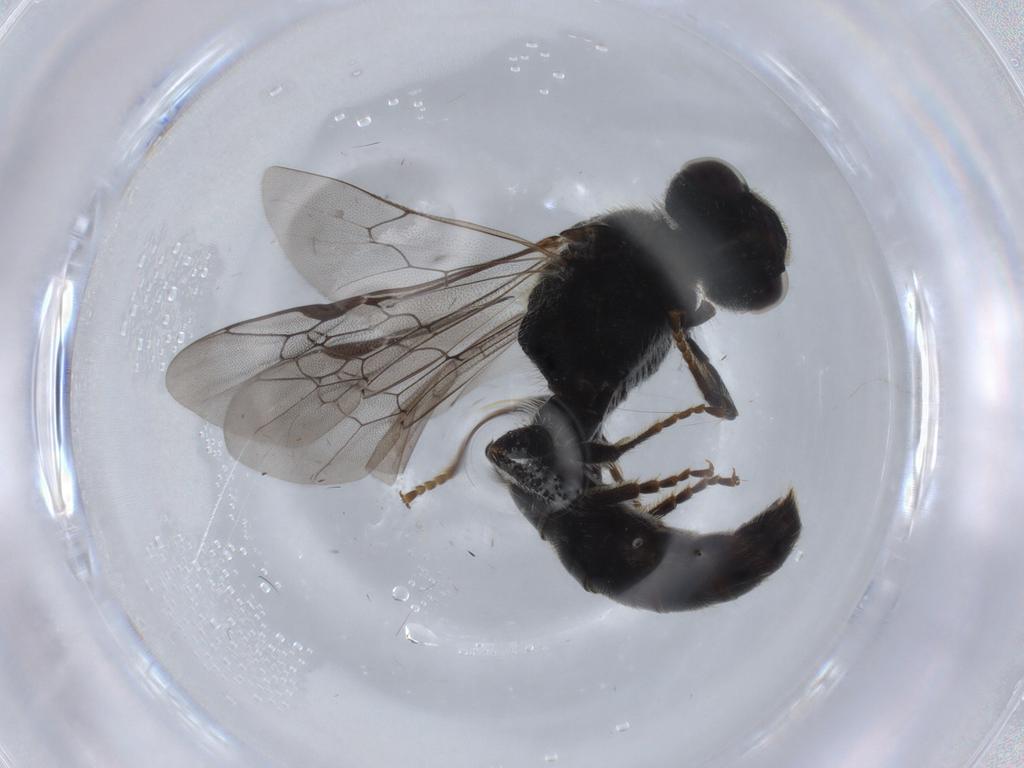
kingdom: Animalia
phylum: Arthropoda
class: Insecta
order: Hymenoptera
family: Halictidae
